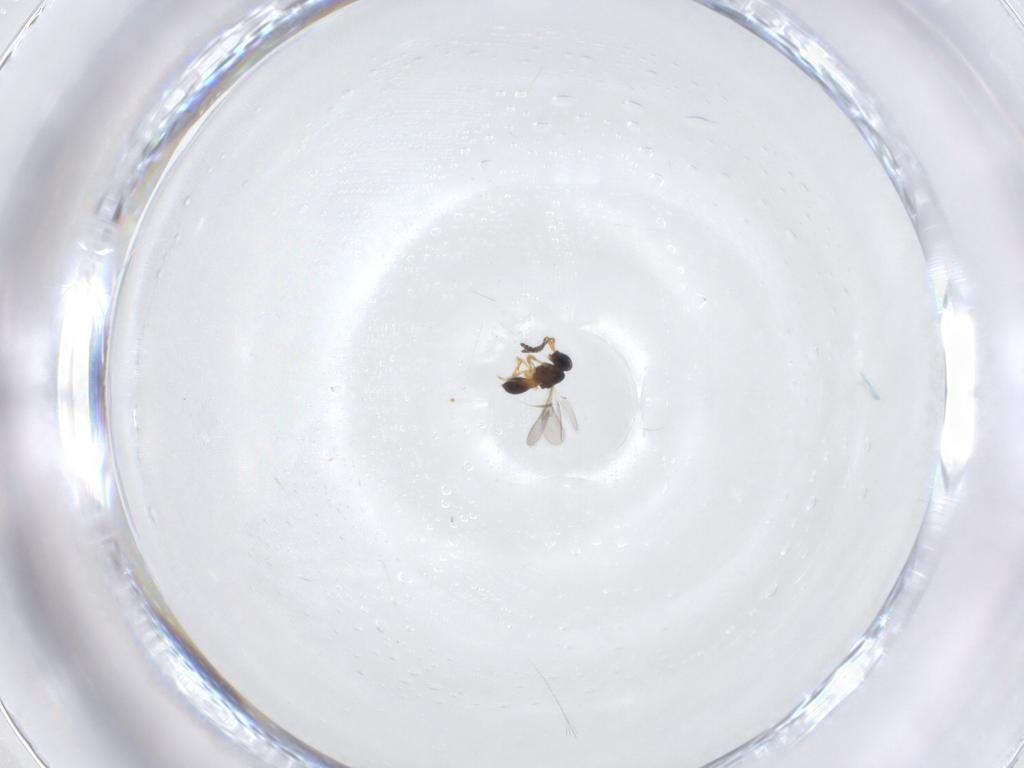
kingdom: Animalia
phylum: Arthropoda
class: Insecta
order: Hymenoptera
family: Scelionidae
